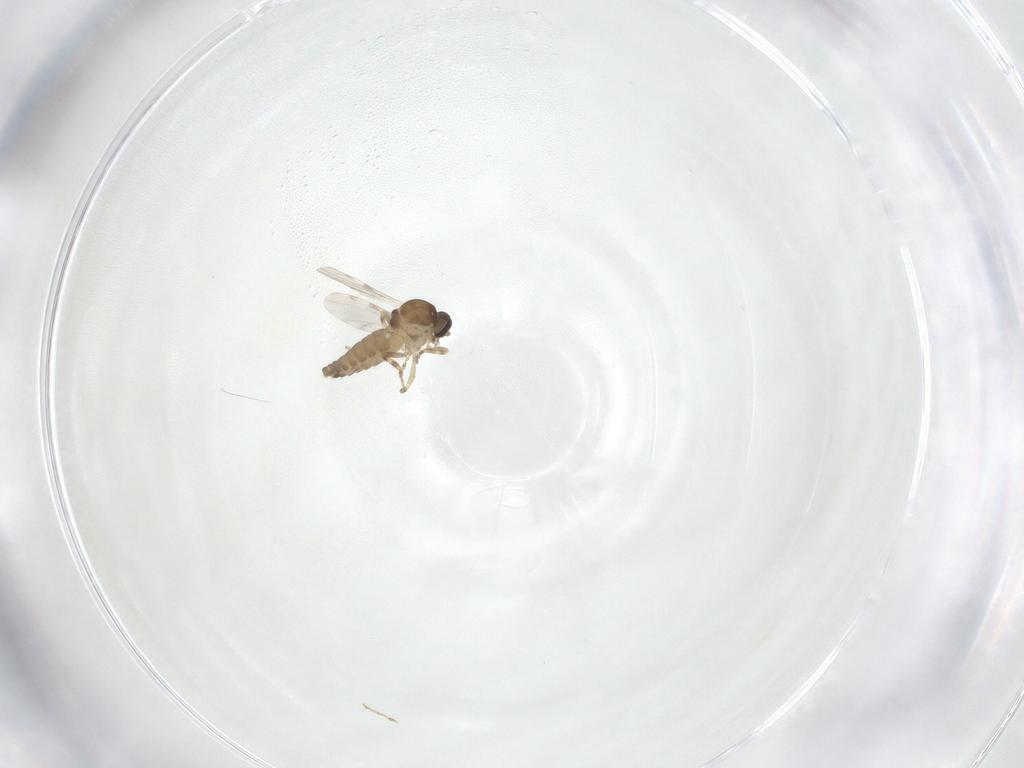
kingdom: Animalia
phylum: Arthropoda
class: Insecta
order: Diptera
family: Ceratopogonidae
